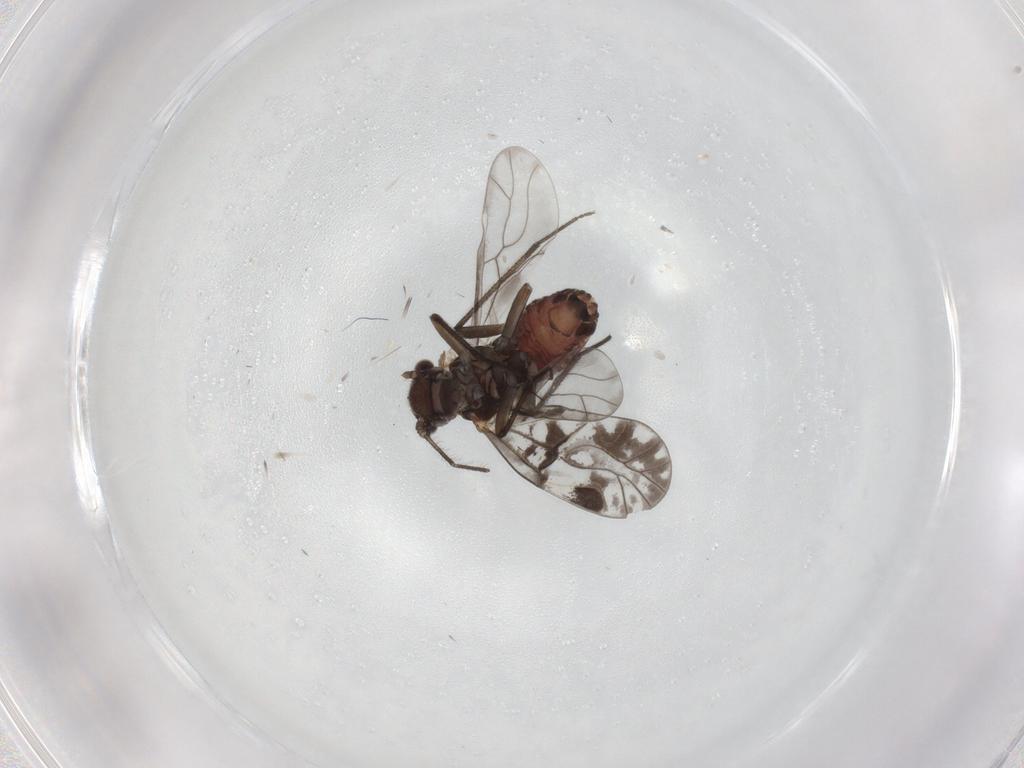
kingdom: Animalia
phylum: Arthropoda
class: Insecta
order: Psocodea
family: Caeciliusidae
